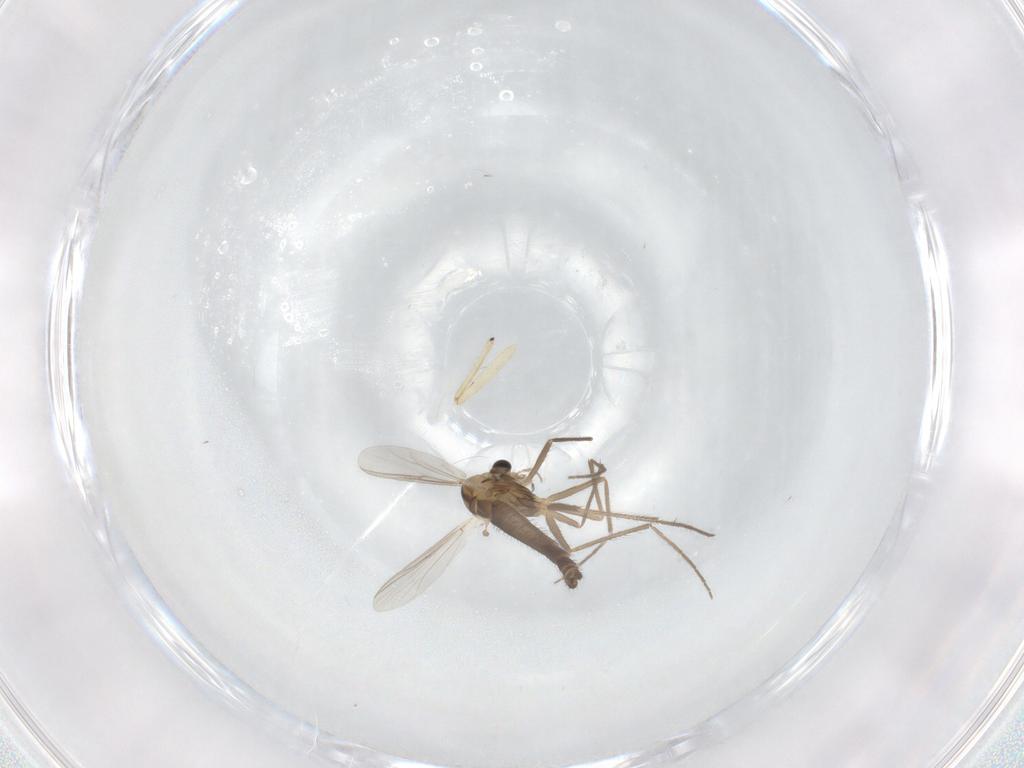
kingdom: Animalia
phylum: Arthropoda
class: Insecta
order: Diptera
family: Chironomidae
